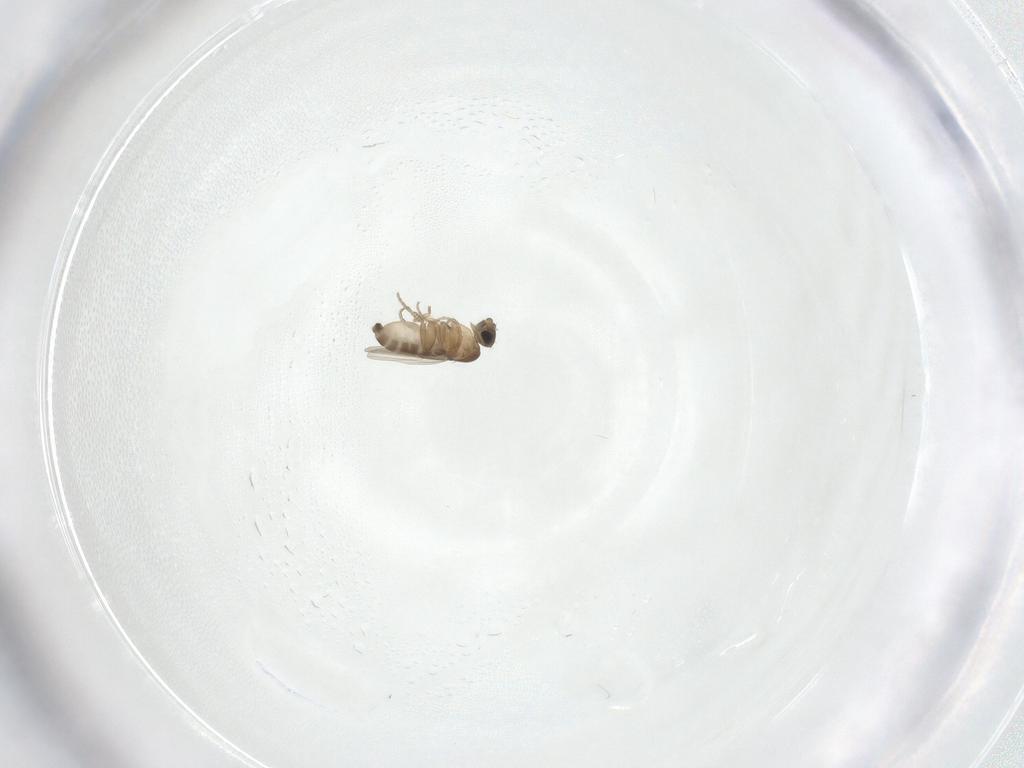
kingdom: Animalia
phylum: Arthropoda
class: Insecta
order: Diptera
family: Phoridae
